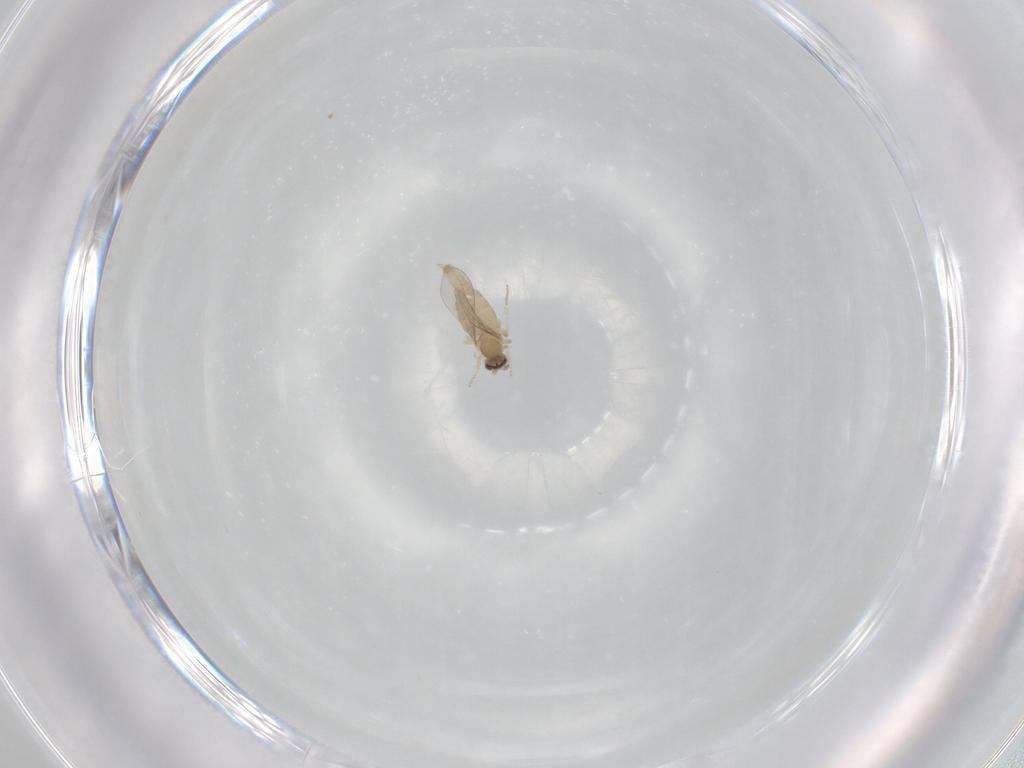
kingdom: Animalia
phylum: Arthropoda
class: Insecta
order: Diptera
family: Cecidomyiidae
